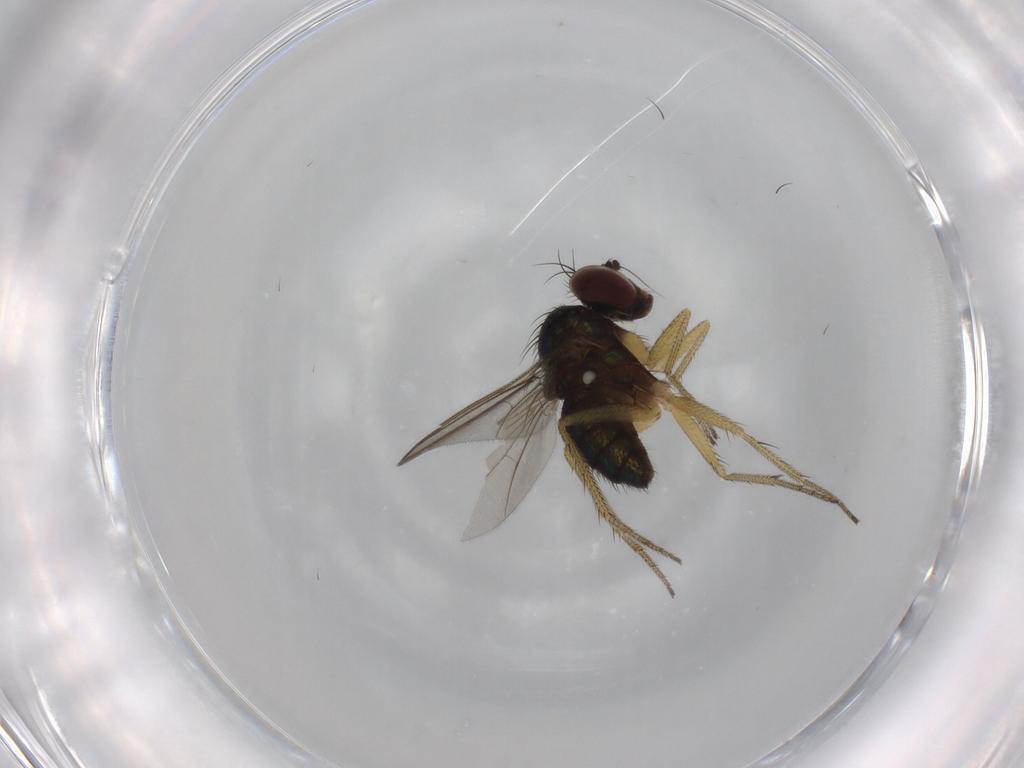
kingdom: Animalia
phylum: Arthropoda
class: Insecta
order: Diptera
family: Dolichopodidae
